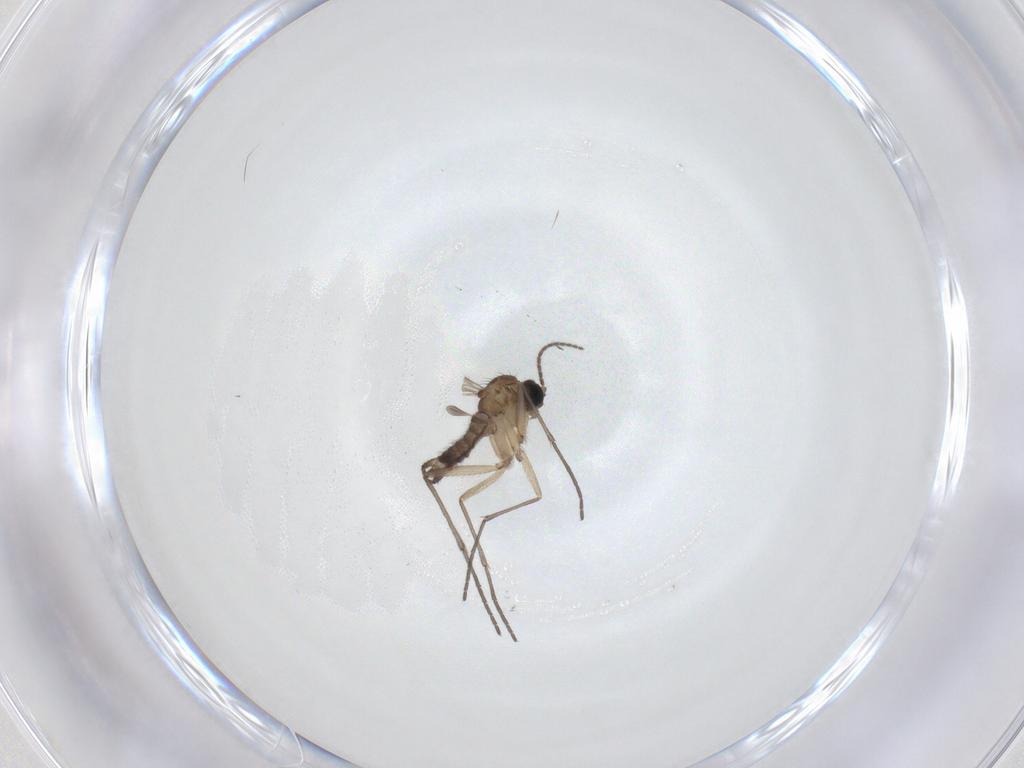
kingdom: Animalia
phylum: Arthropoda
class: Insecta
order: Diptera
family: Sciaridae
